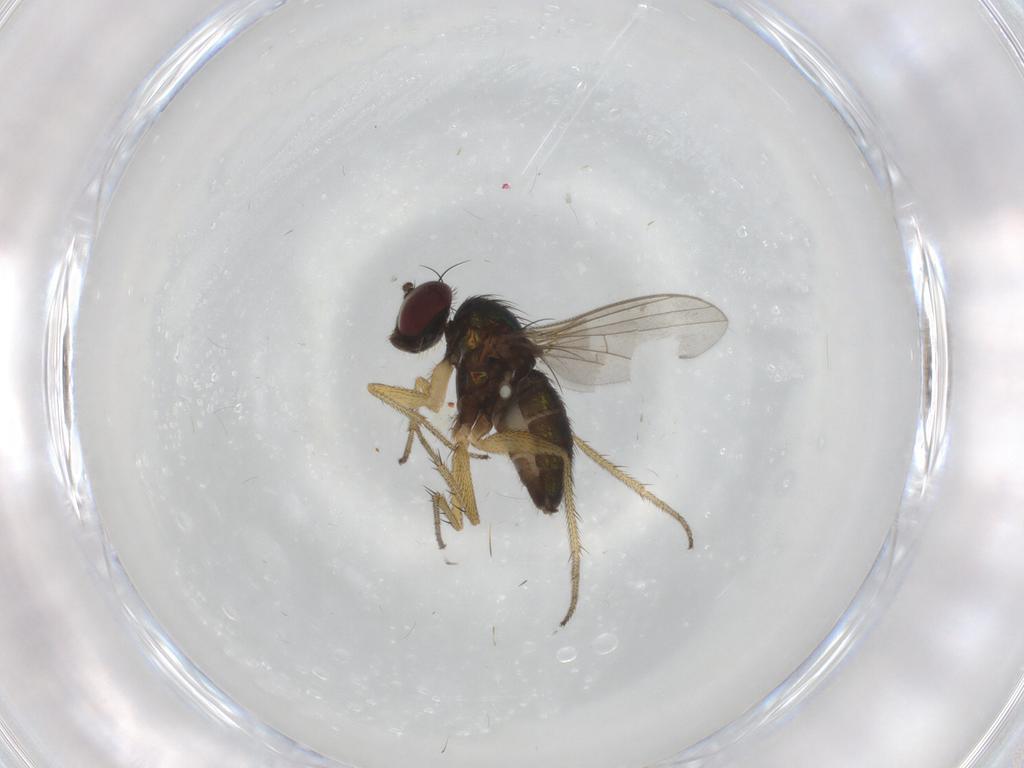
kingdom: Animalia
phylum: Arthropoda
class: Insecta
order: Diptera
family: Dolichopodidae
